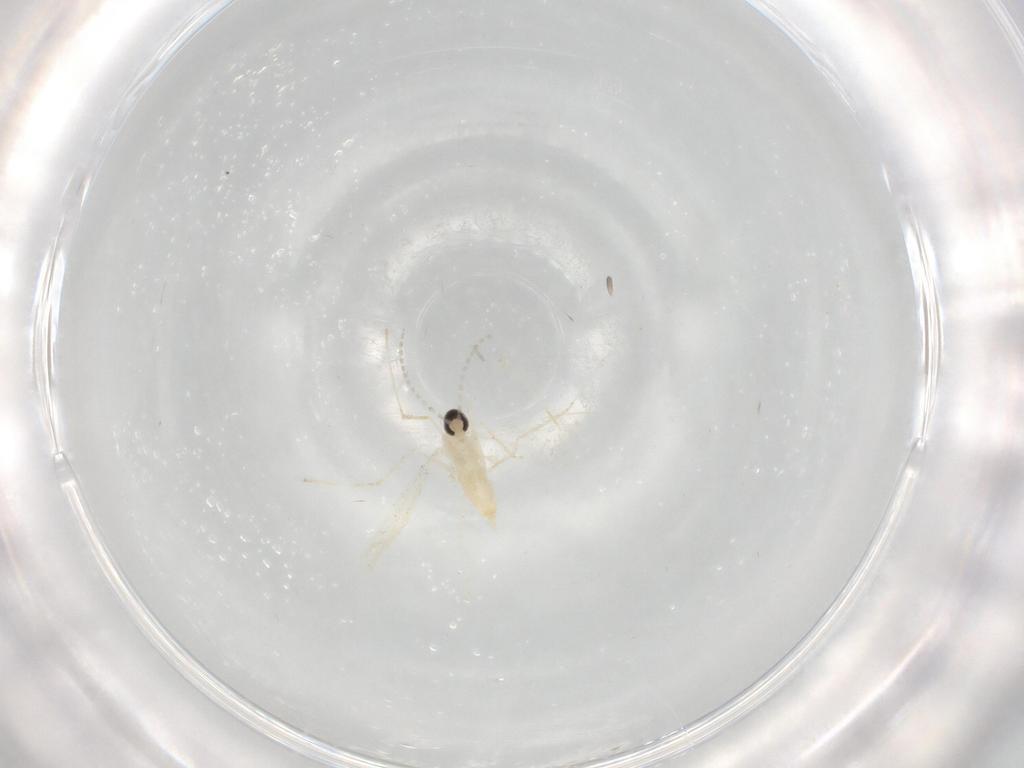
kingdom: Animalia
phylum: Arthropoda
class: Insecta
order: Diptera
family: Cecidomyiidae
